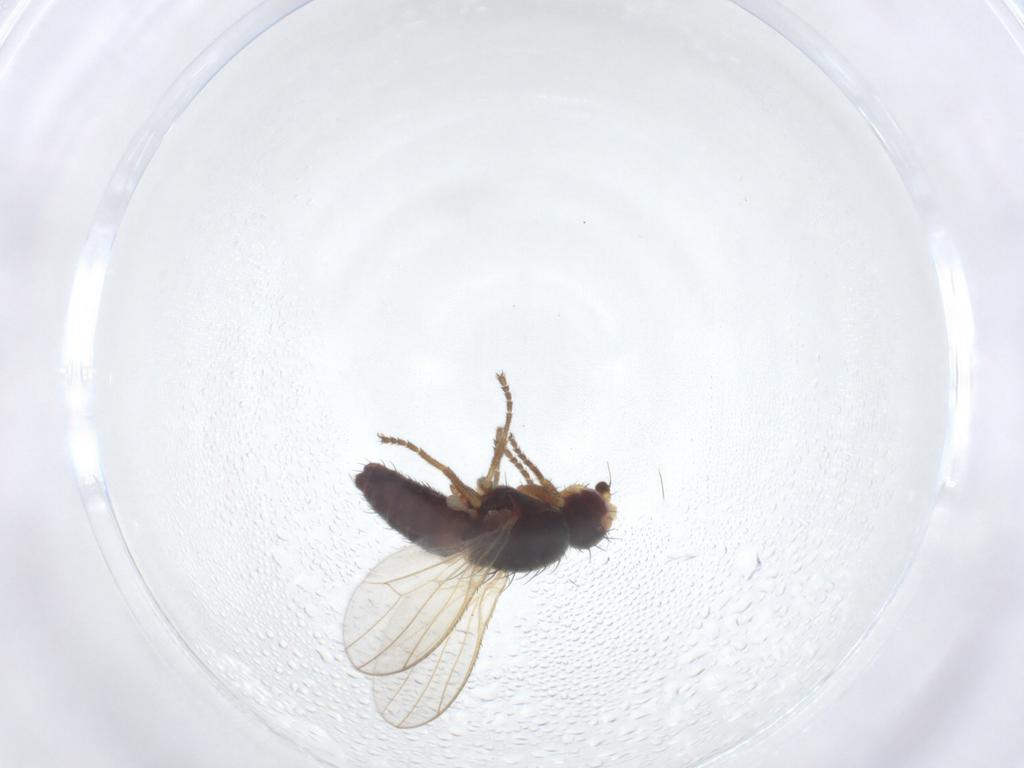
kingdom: Animalia
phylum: Arthropoda
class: Insecta
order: Diptera
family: Heleomyzidae
